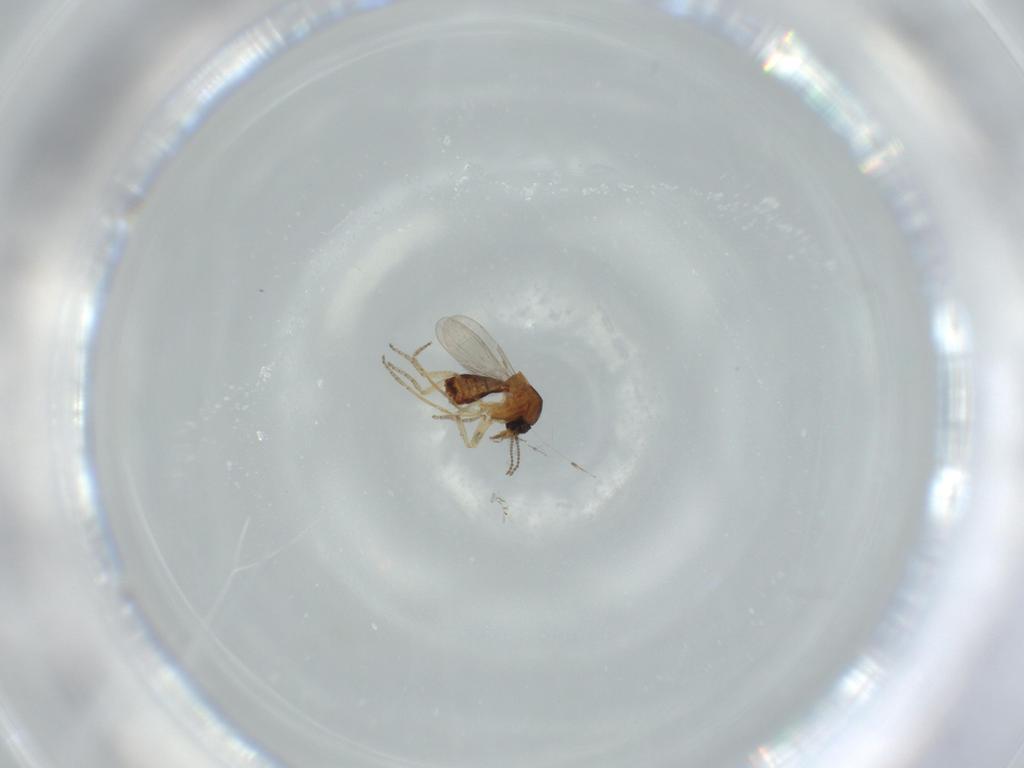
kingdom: Animalia
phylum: Arthropoda
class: Insecta
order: Diptera
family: Ceratopogonidae
